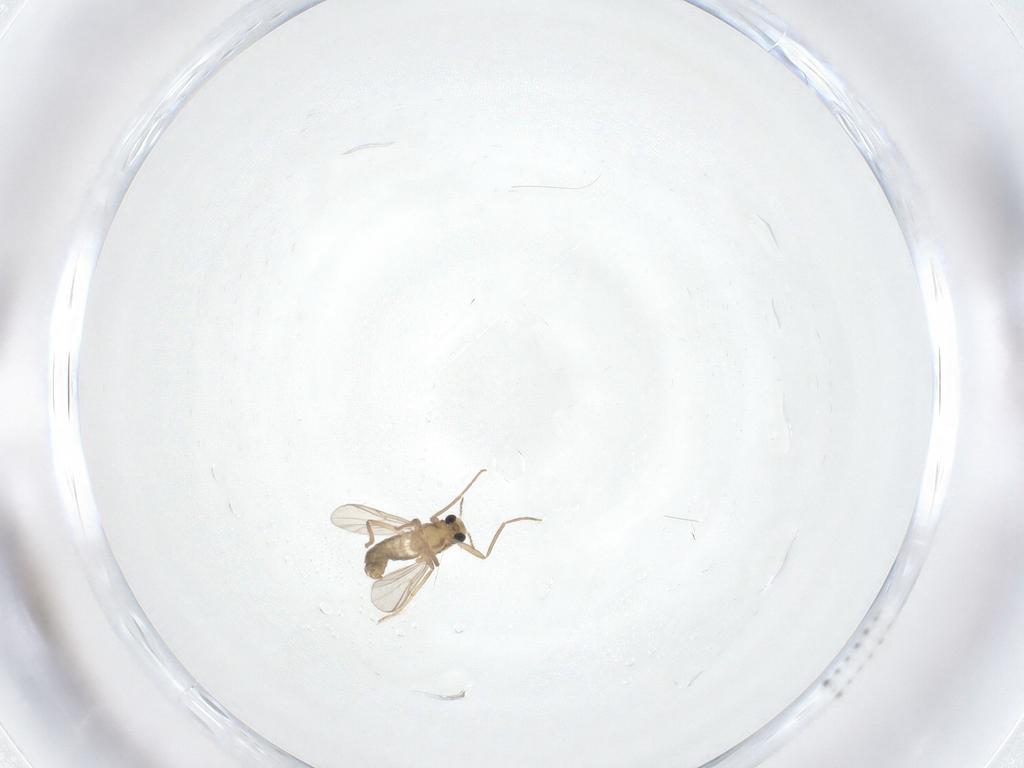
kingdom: Animalia
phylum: Arthropoda
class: Insecta
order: Diptera
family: Chironomidae
